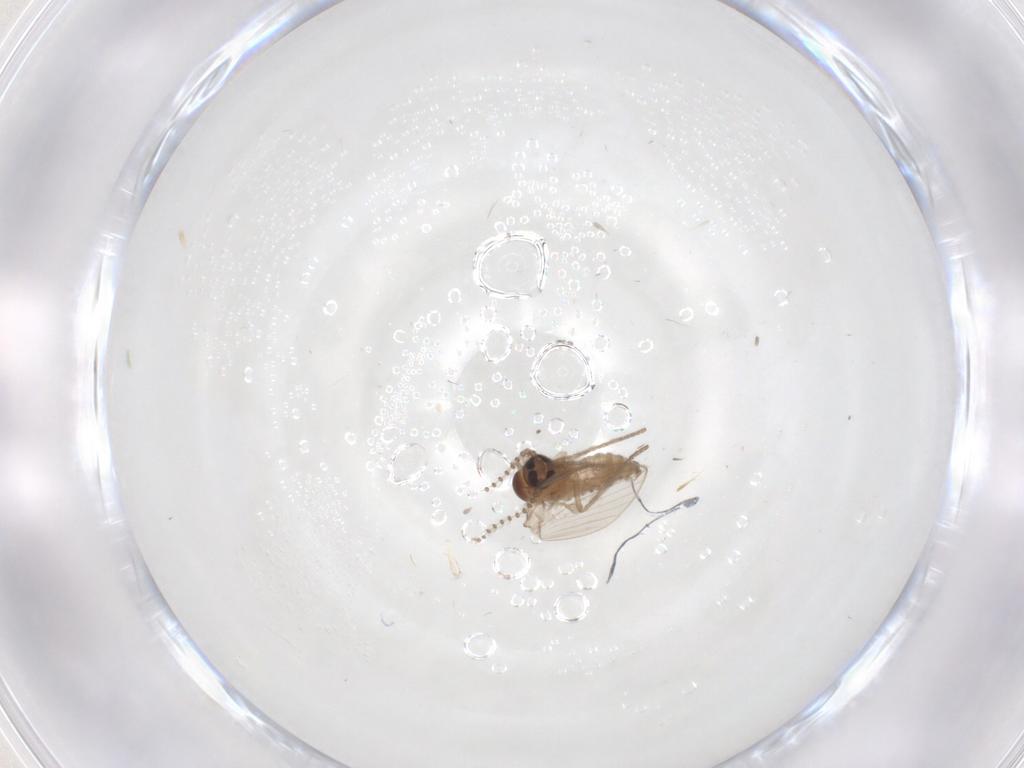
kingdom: Animalia
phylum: Arthropoda
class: Insecta
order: Diptera
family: Psychodidae
